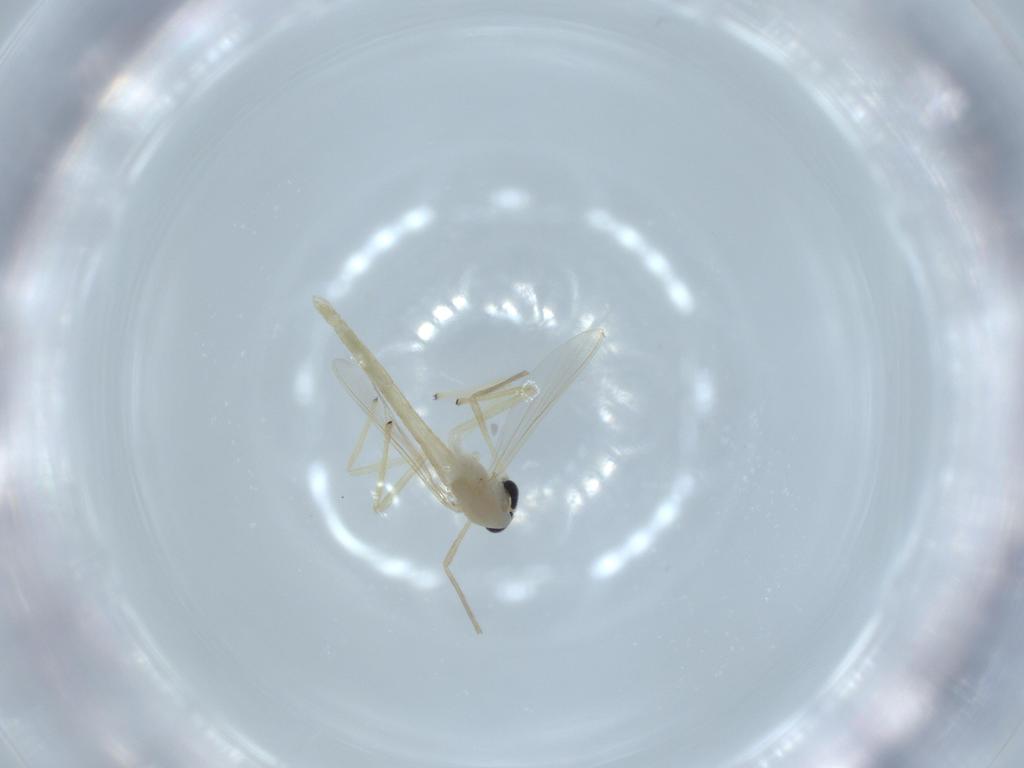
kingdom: Animalia
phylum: Arthropoda
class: Insecta
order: Diptera
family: Chironomidae
